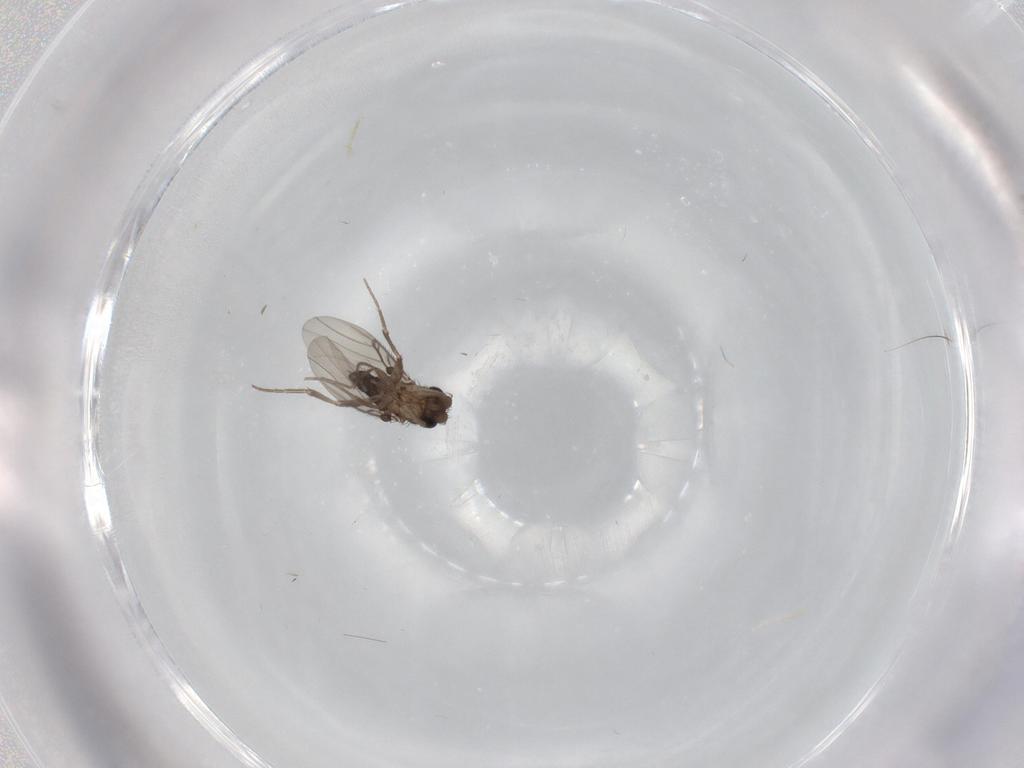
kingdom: Animalia
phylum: Arthropoda
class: Insecta
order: Diptera
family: Sciaridae
